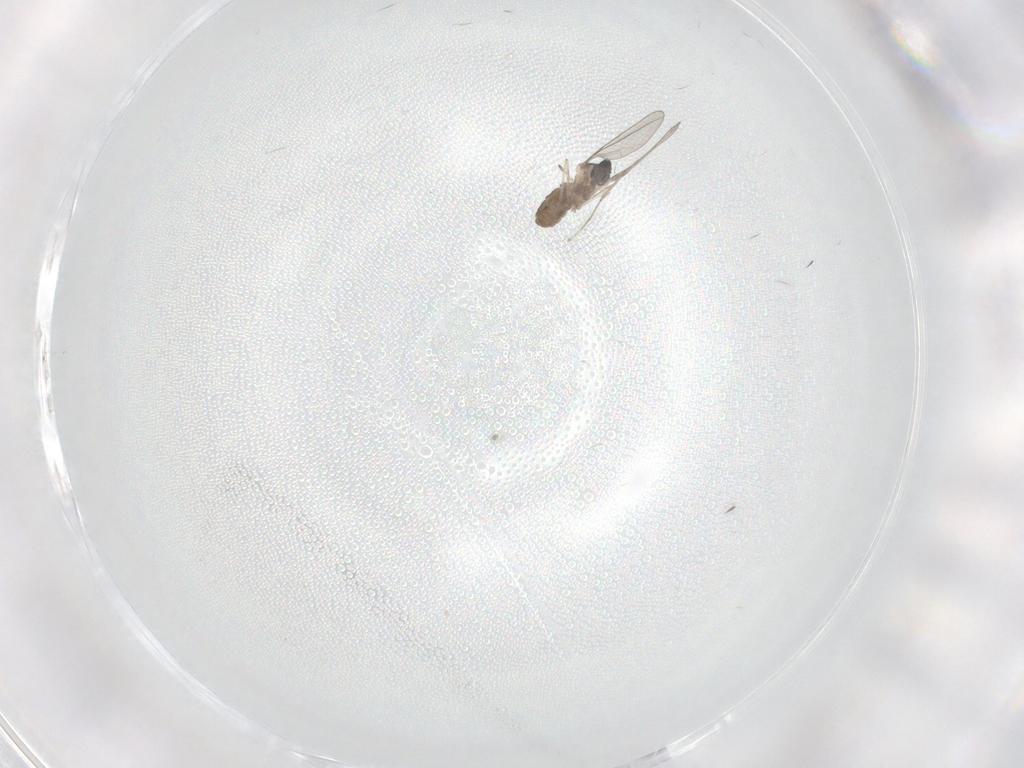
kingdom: Animalia
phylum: Arthropoda
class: Insecta
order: Diptera
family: Cecidomyiidae
